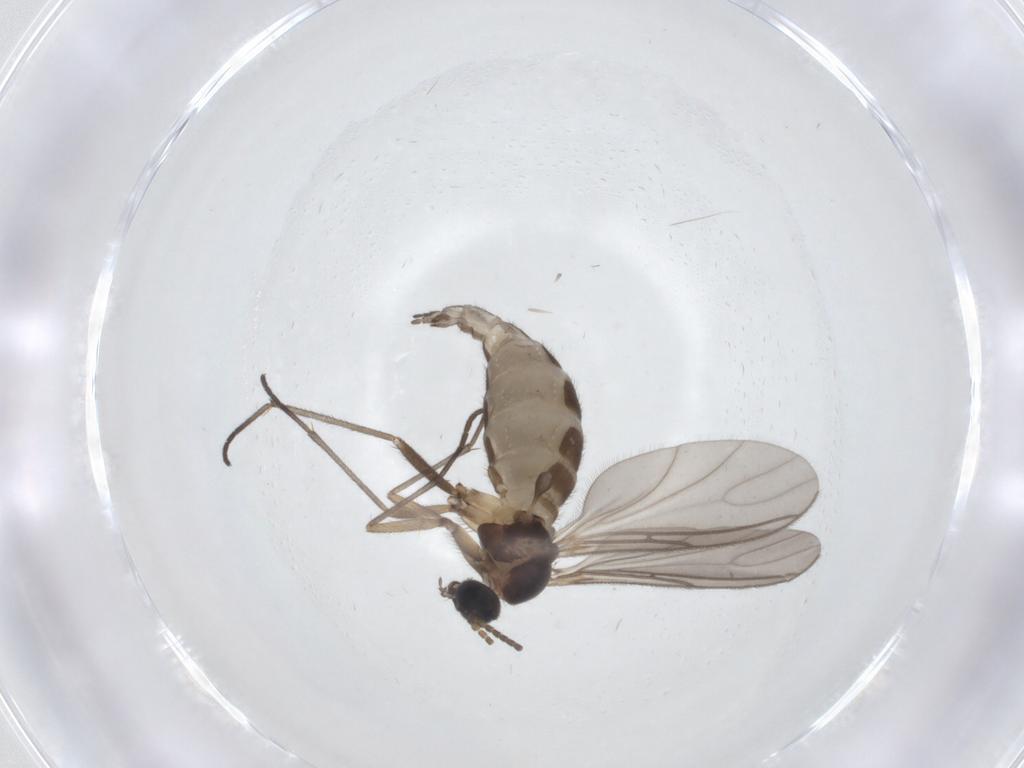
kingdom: Animalia
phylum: Arthropoda
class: Insecta
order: Diptera
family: Sciaridae
